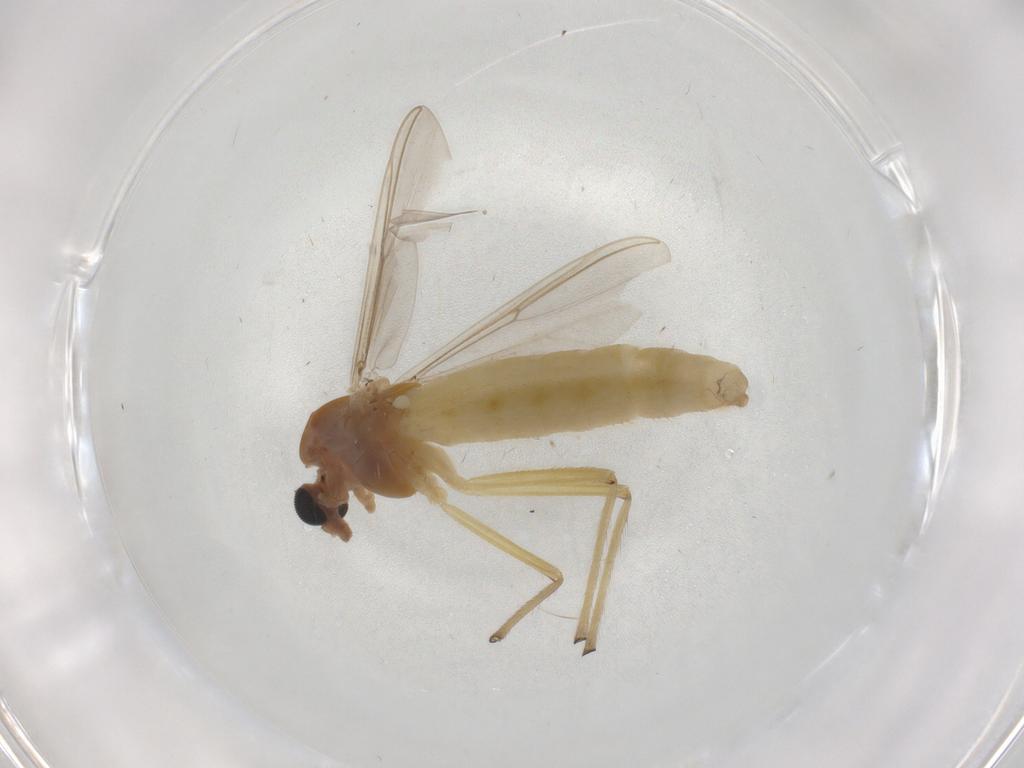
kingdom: Animalia
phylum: Arthropoda
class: Insecta
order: Diptera
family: Chironomidae
